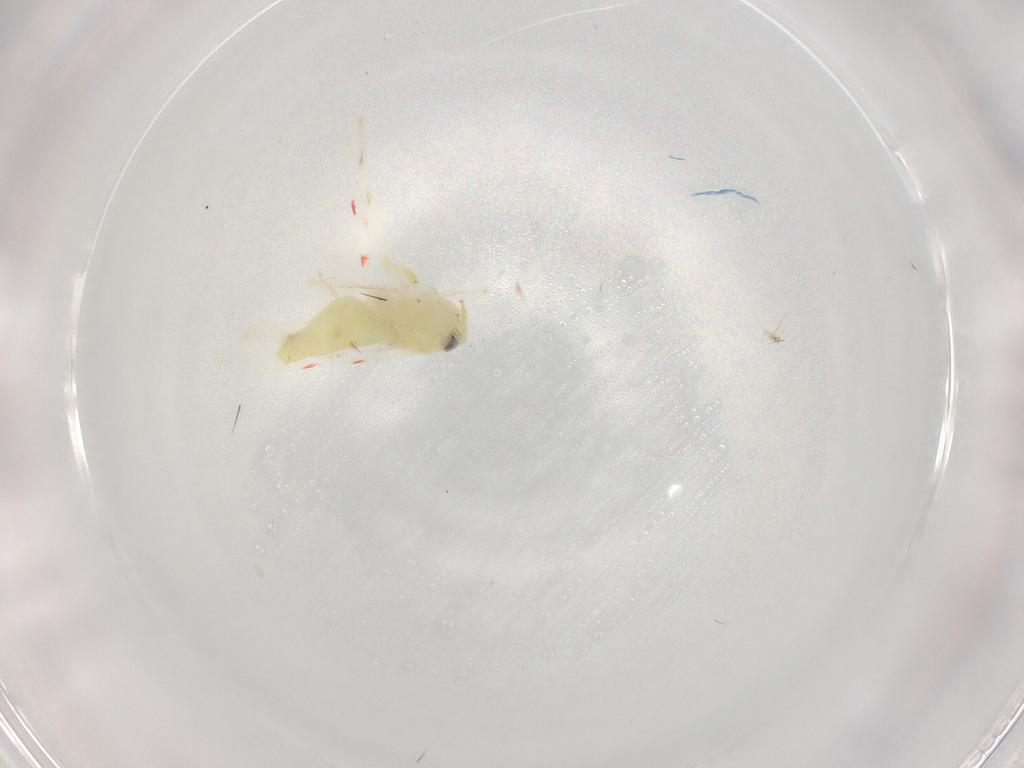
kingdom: Animalia
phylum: Arthropoda
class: Insecta
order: Hemiptera
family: Cicadellidae
